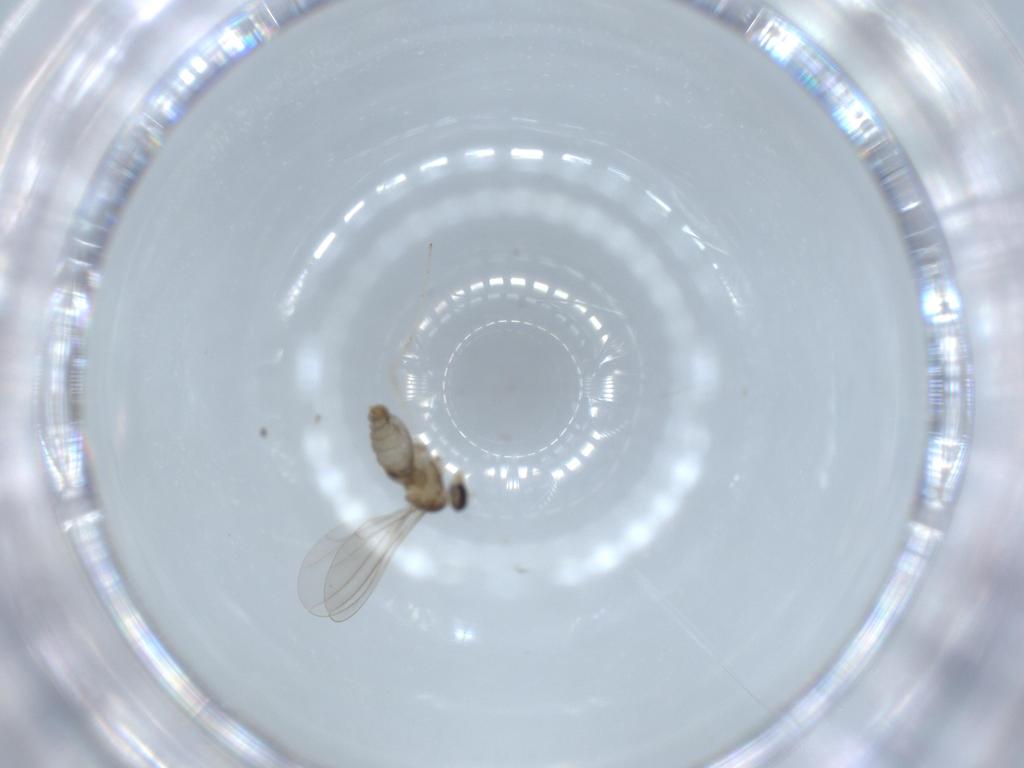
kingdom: Animalia
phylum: Arthropoda
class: Insecta
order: Diptera
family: Cecidomyiidae
